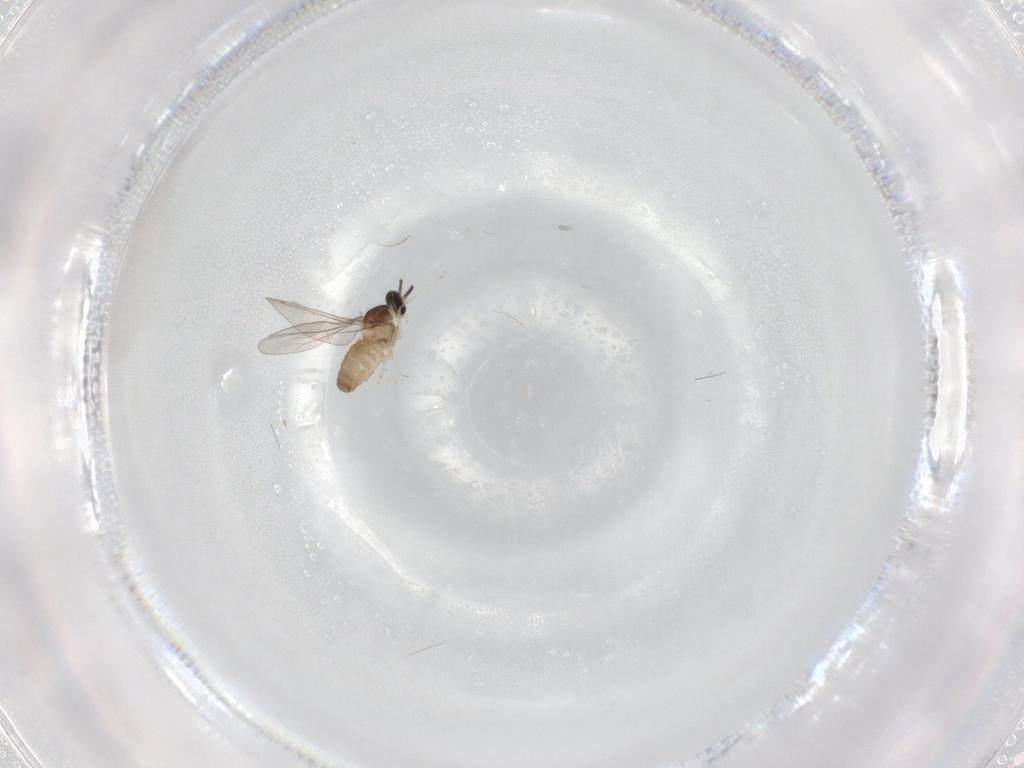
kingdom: Animalia
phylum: Arthropoda
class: Insecta
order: Diptera
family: Cecidomyiidae
